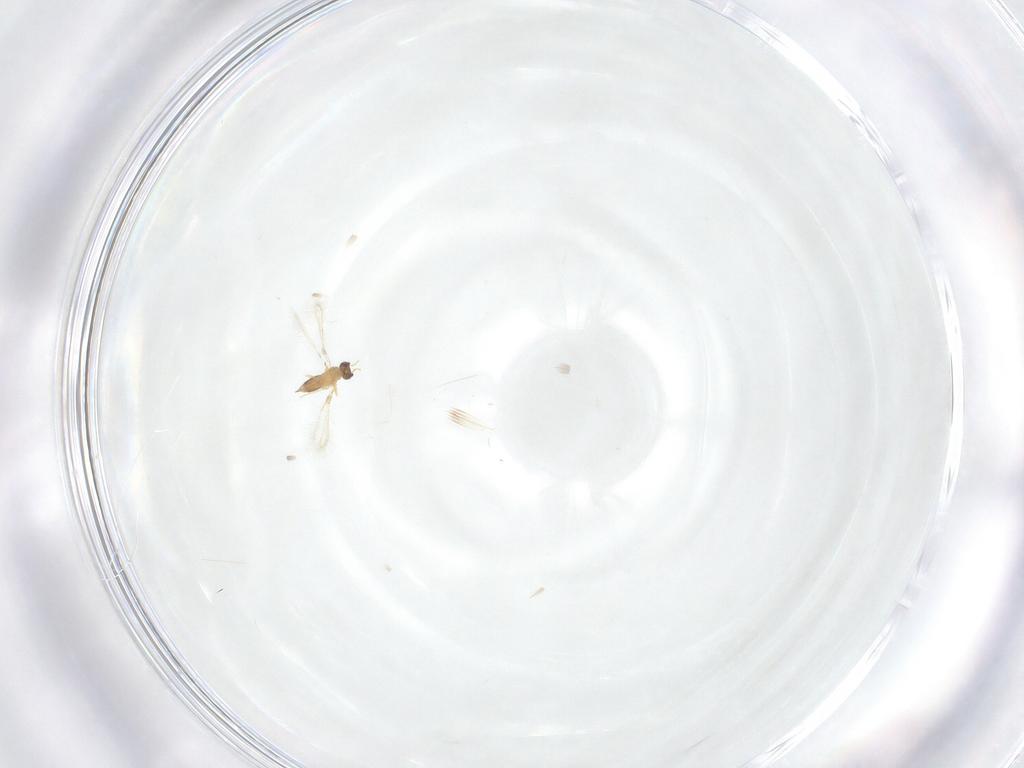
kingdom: Animalia
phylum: Arthropoda
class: Insecta
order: Hymenoptera
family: Mymaridae
